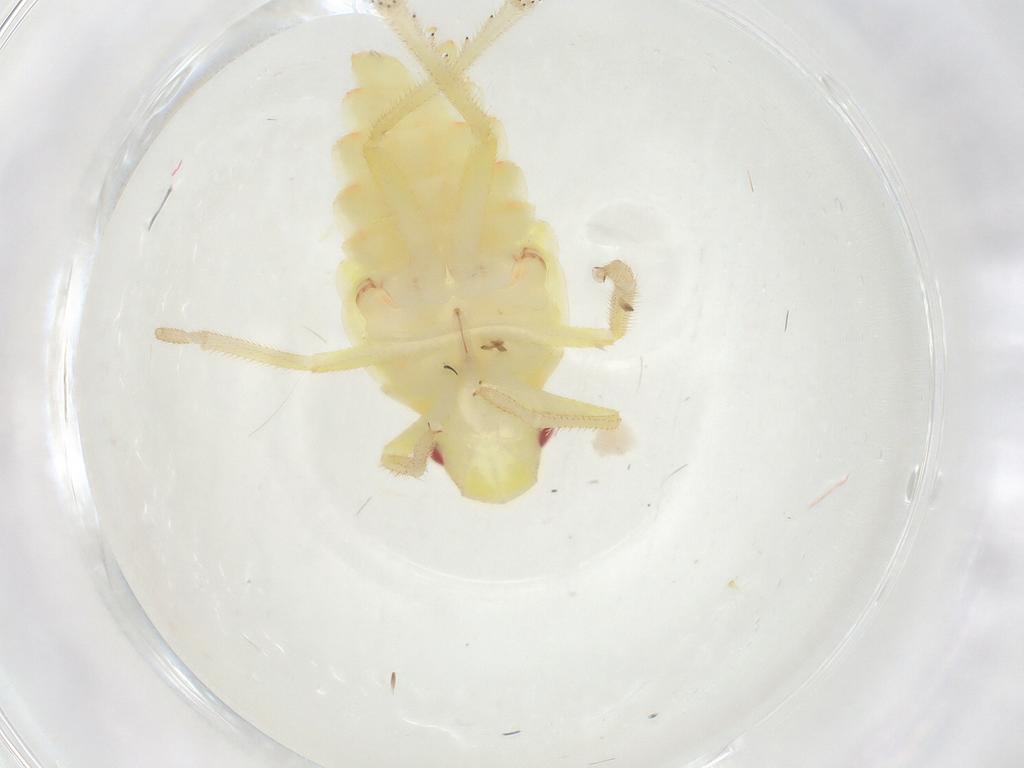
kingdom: Animalia
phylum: Arthropoda
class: Insecta
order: Hemiptera
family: Tropiduchidae
